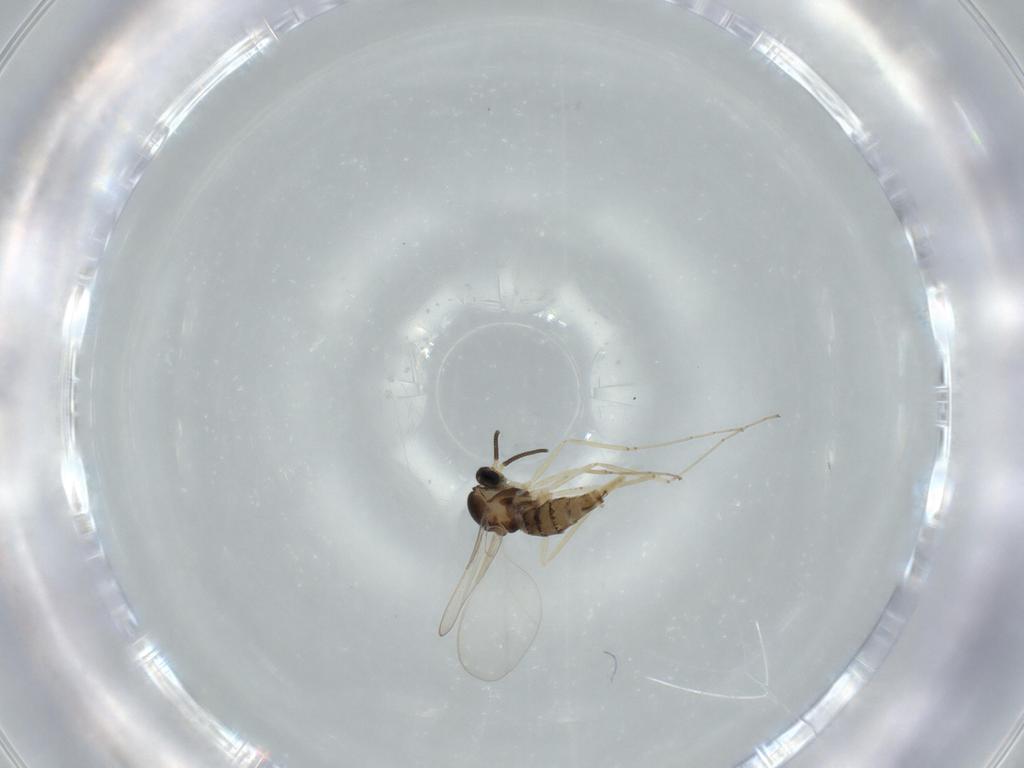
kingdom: Animalia
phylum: Arthropoda
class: Insecta
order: Diptera
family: Cecidomyiidae
